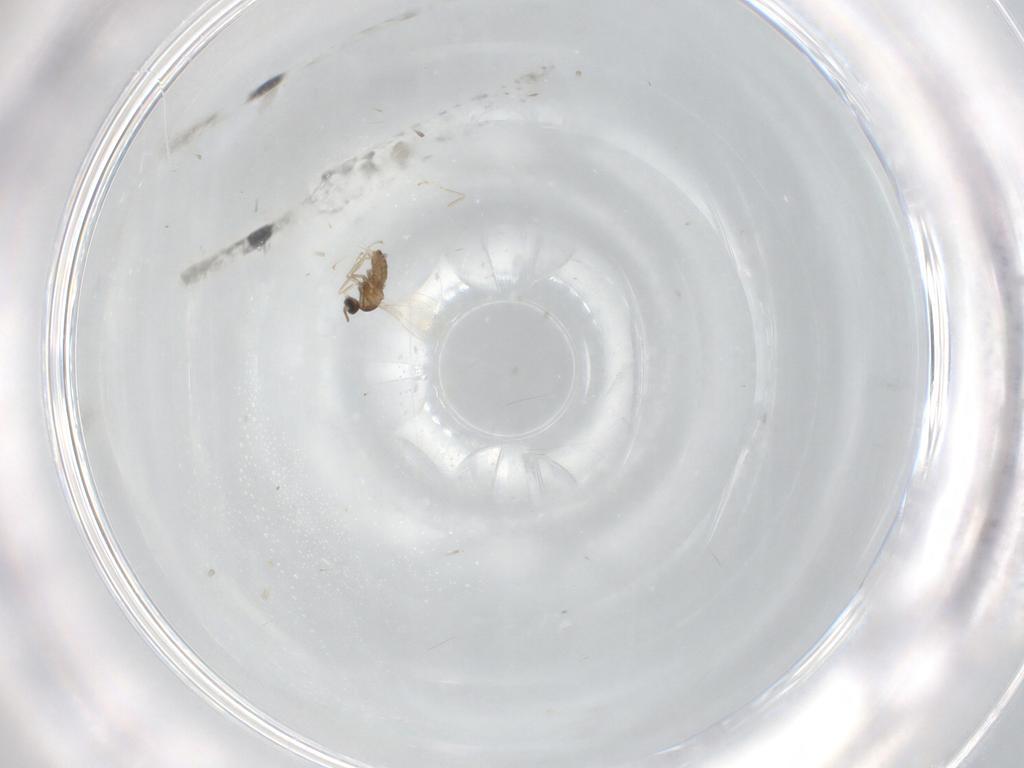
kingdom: Animalia
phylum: Arthropoda
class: Insecta
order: Diptera
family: Cecidomyiidae
